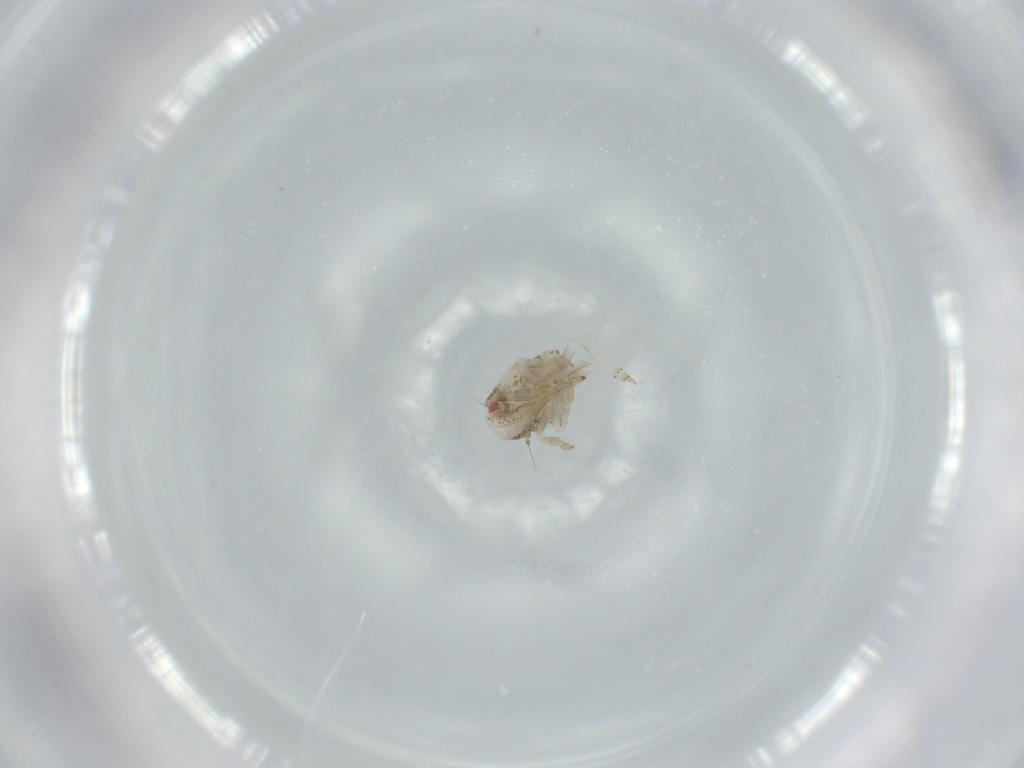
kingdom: Animalia
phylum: Arthropoda
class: Insecta
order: Hemiptera
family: Acanaloniidae
